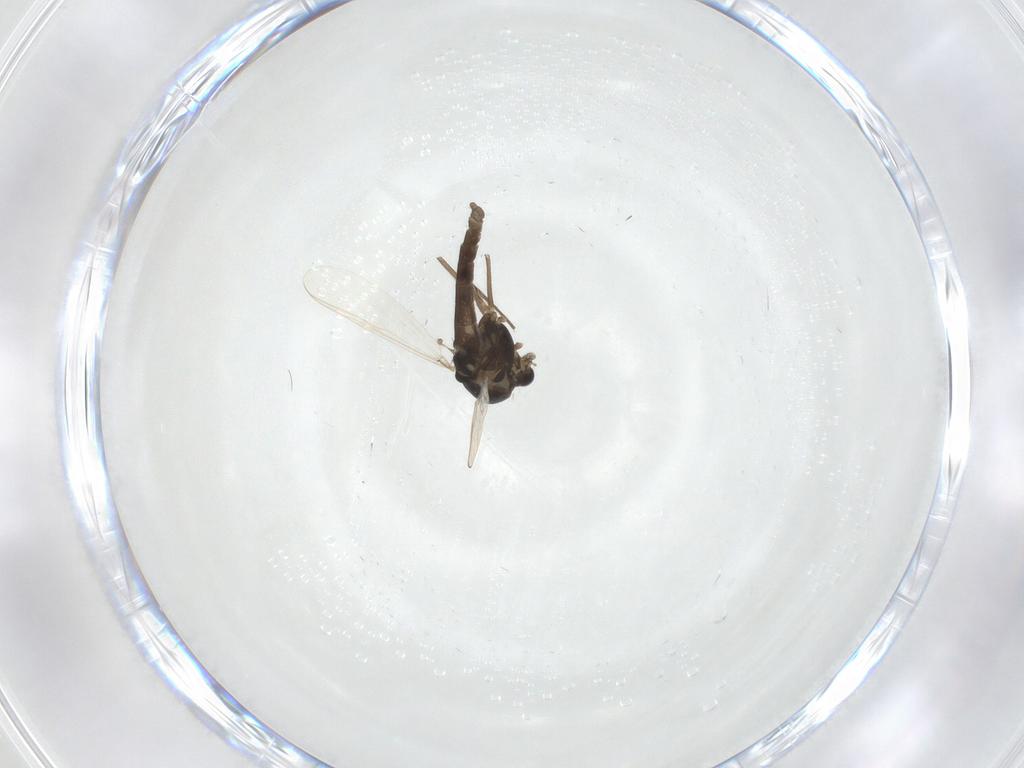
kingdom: Animalia
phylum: Arthropoda
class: Insecta
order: Diptera
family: Chironomidae
